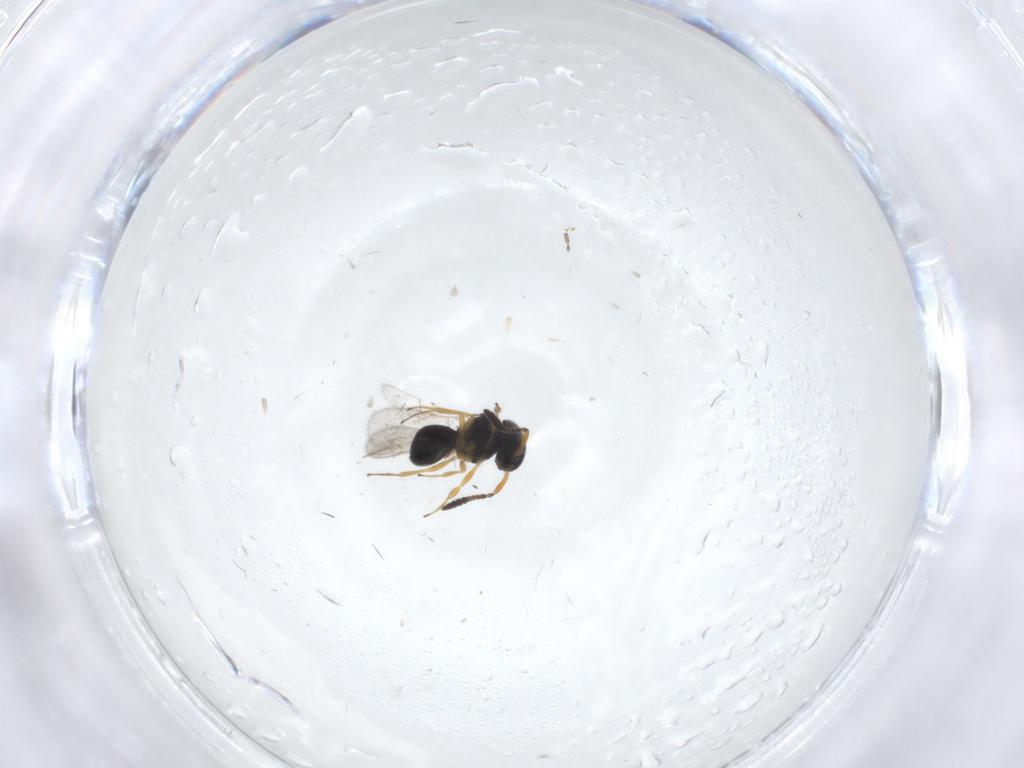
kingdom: Animalia
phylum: Arthropoda
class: Insecta
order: Hymenoptera
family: Scelionidae
